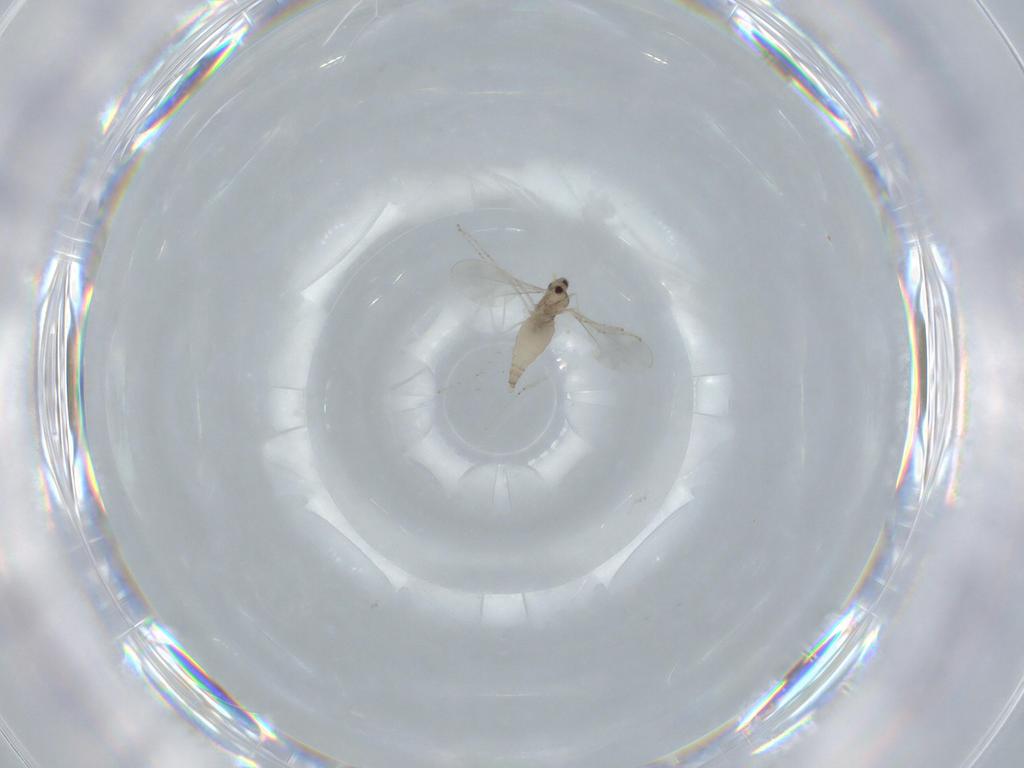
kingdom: Animalia
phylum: Arthropoda
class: Insecta
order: Diptera
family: Cecidomyiidae
